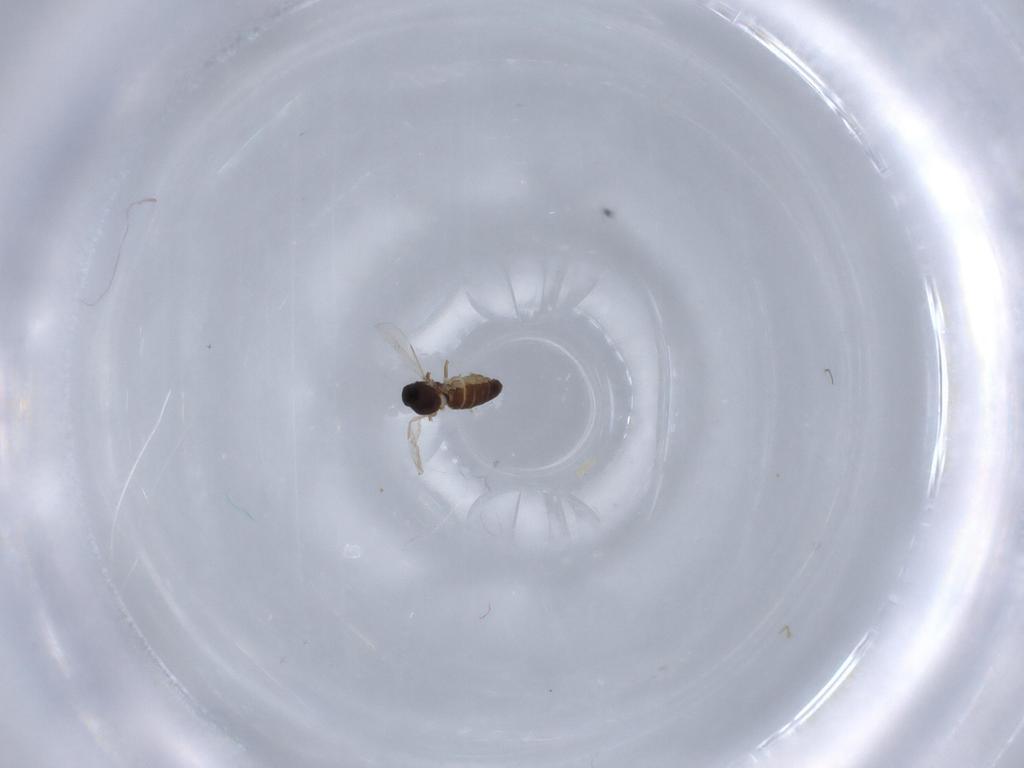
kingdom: Animalia
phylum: Arthropoda
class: Insecta
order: Diptera
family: Ceratopogonidae
